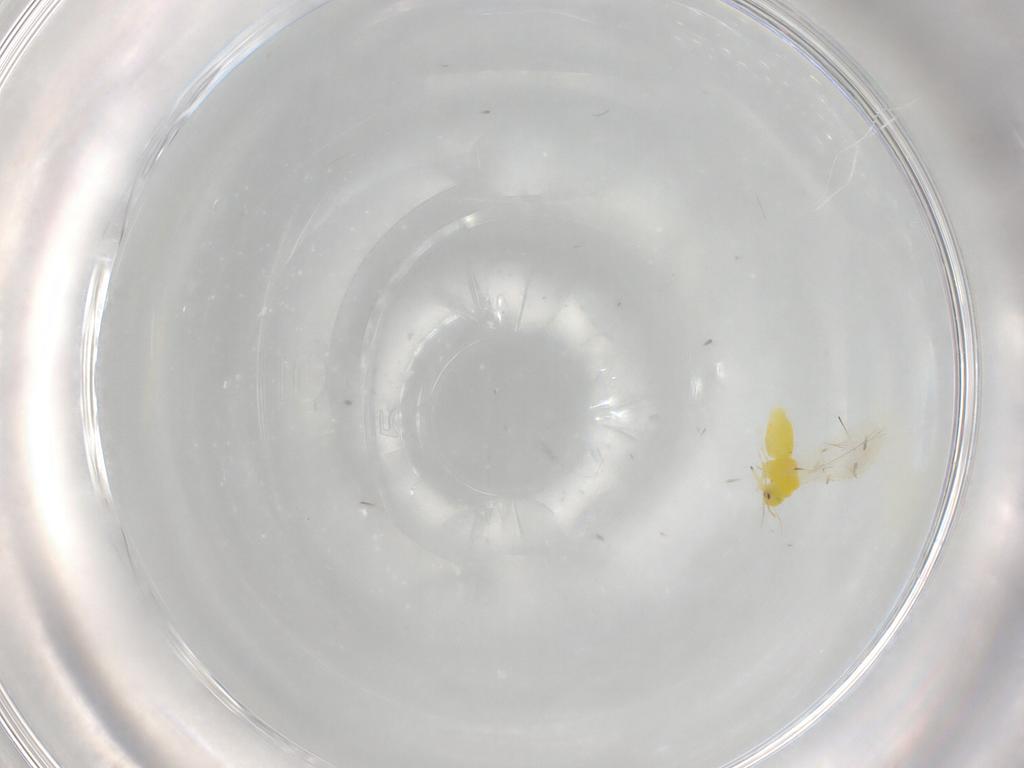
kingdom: Animalia
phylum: Arthropoda
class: Insecta
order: Hemiptera
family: Miridae
